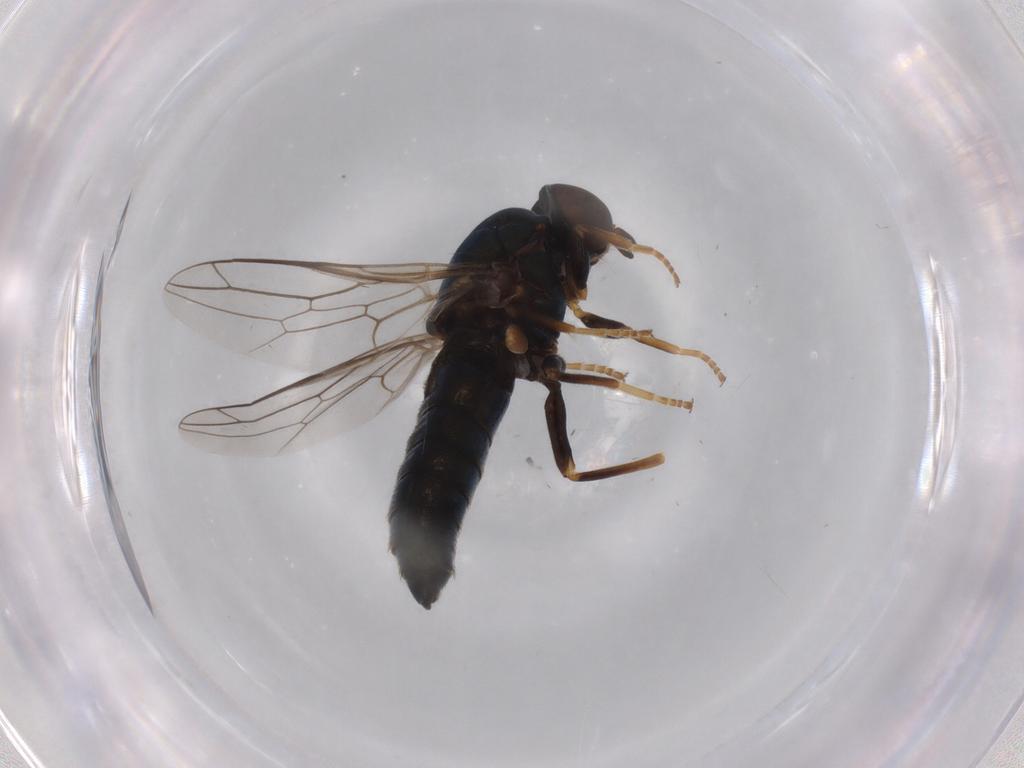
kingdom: Animalia
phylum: Arthropoda
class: Insecta
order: Diptera
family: Scenopinidae
